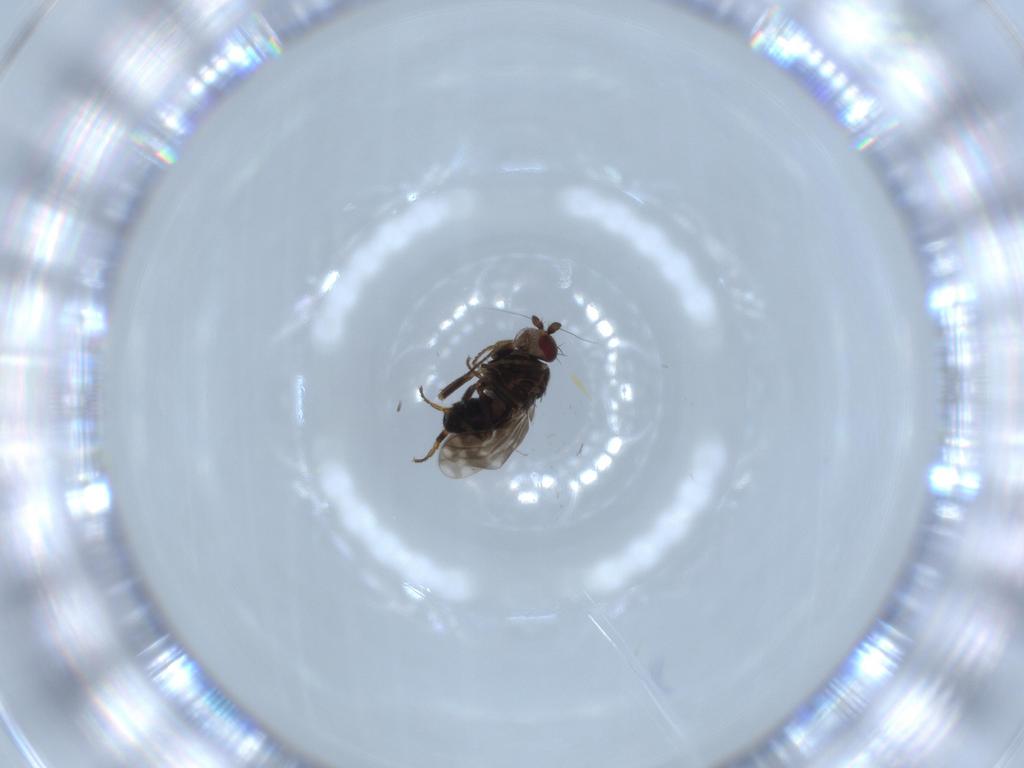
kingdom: Animalia
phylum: Arthropoda
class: Insecta
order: Diptera
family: Sphaeroceridae
